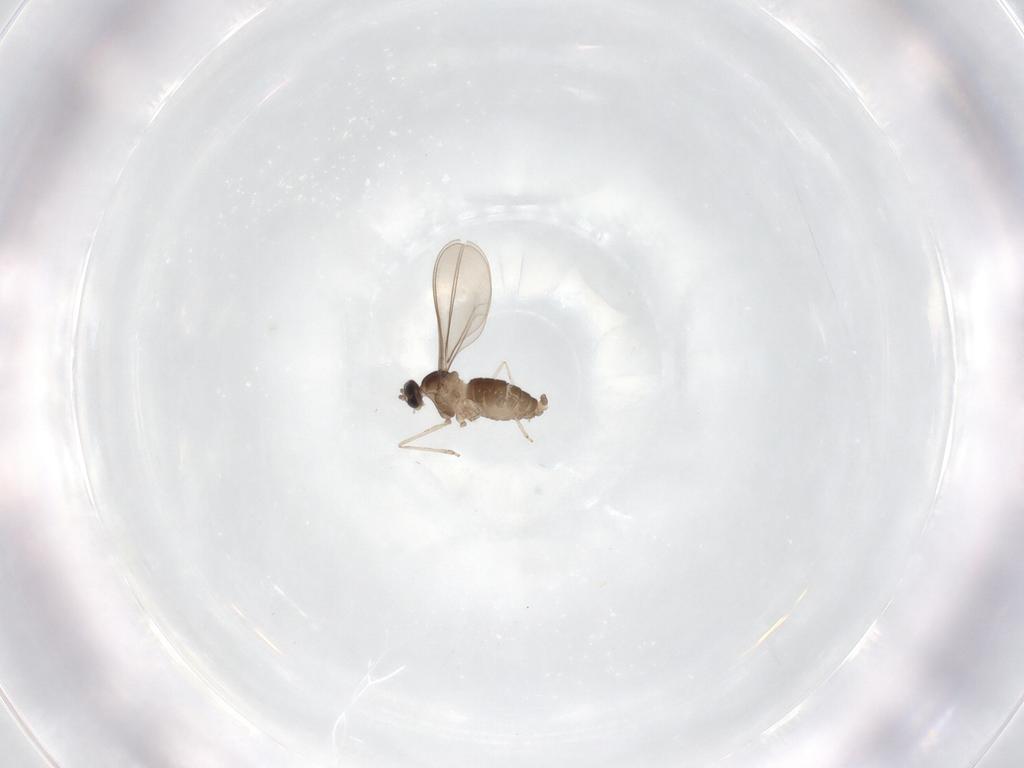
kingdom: Animalia
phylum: Arthropoda
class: Insecta
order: Diptera
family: Cecidomyiidae
